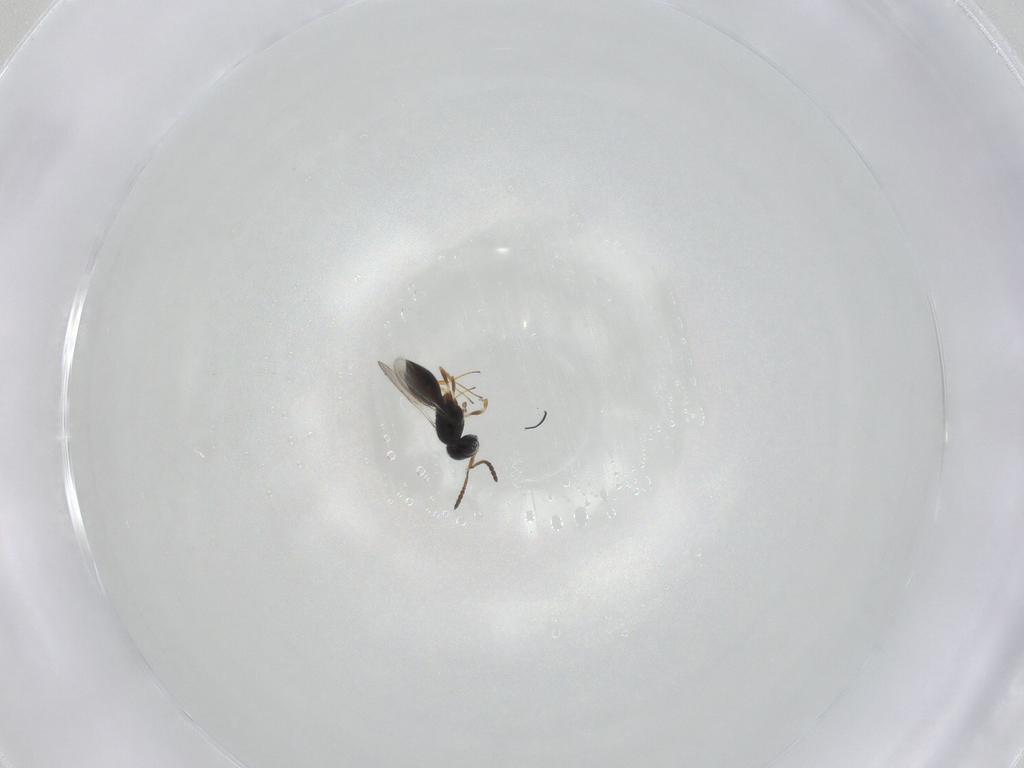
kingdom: Animalia
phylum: Arthropoda
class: Insecta
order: Hymenoptera
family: Scelionidae
